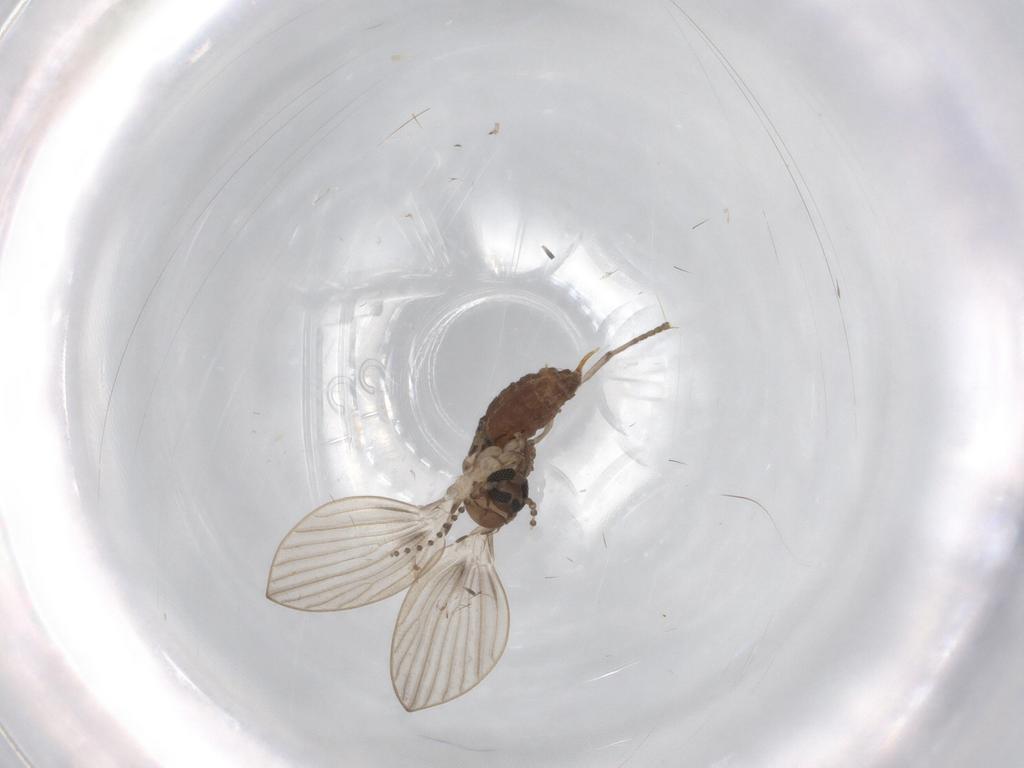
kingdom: Animalia
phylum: Arthropoda
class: Insecta
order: Diptera
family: Psychodidae
